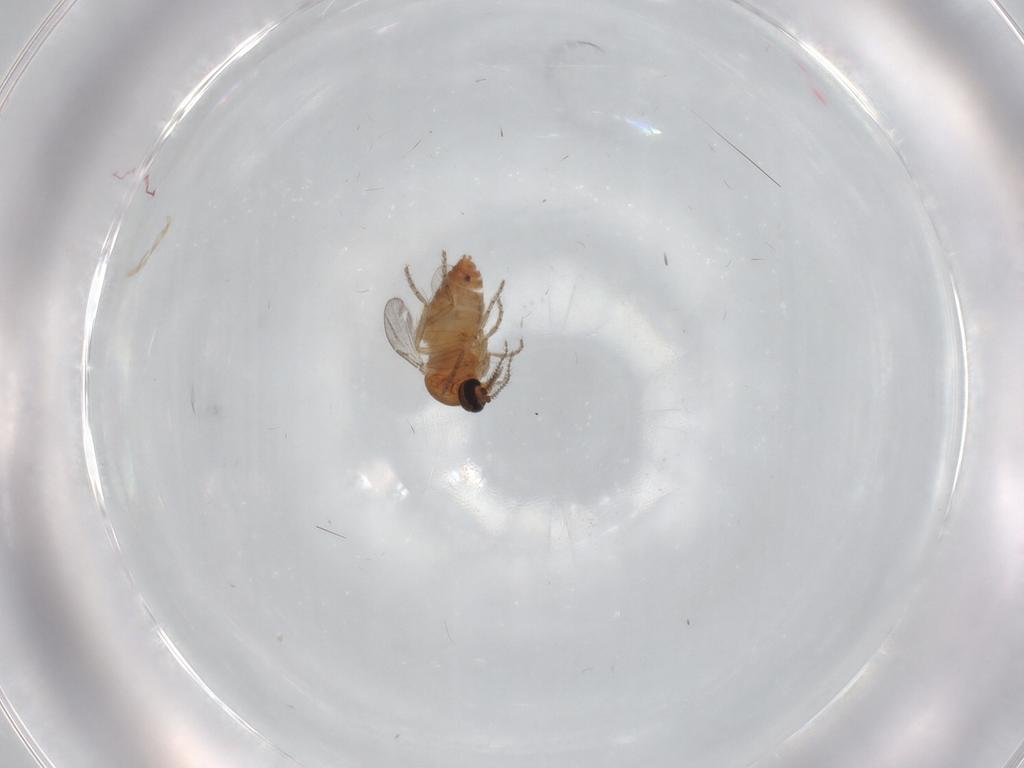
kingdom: Animalia
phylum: Arthropoda
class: Insecta
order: Diptera
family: Ceratopogonidae
